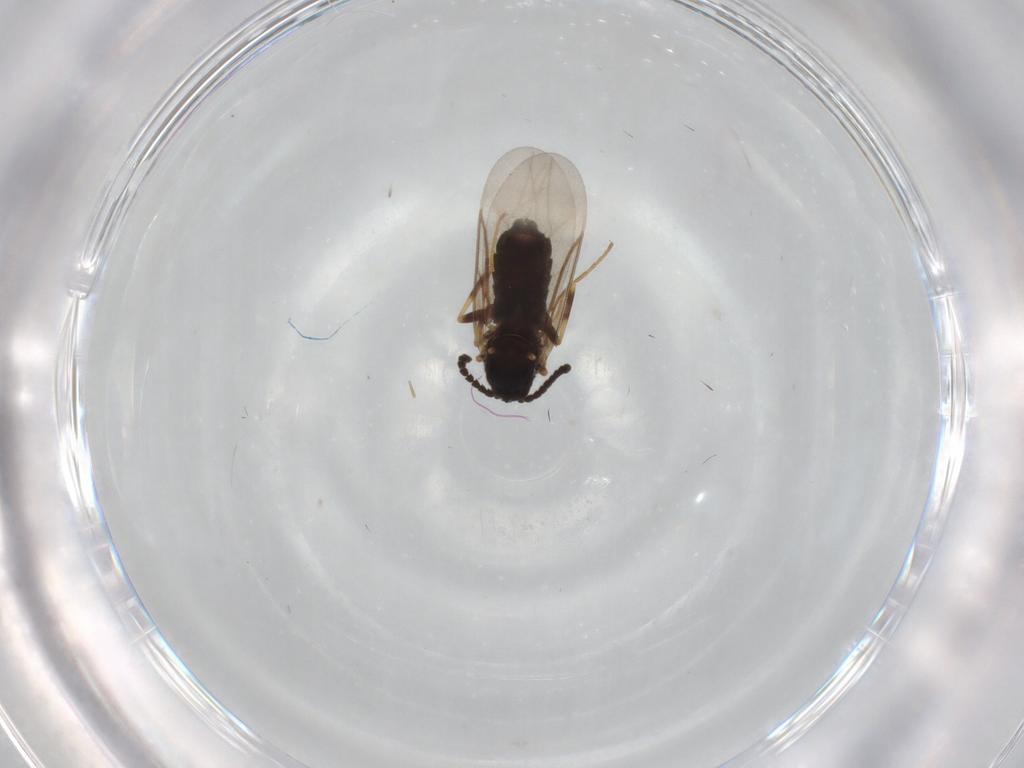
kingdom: Animalia
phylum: Arthropoda
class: Insecta
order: Diptera
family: Scatopsidae
